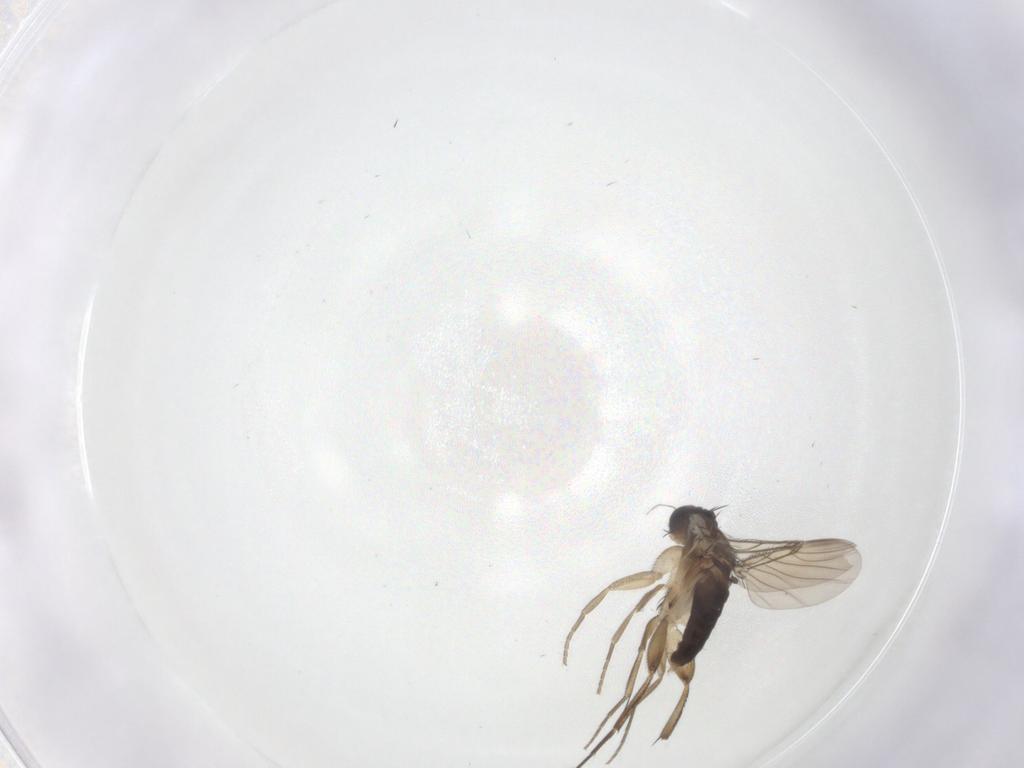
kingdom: Animalia
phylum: Arthropoda
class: Insecta
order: Diptera
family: Phoridae
